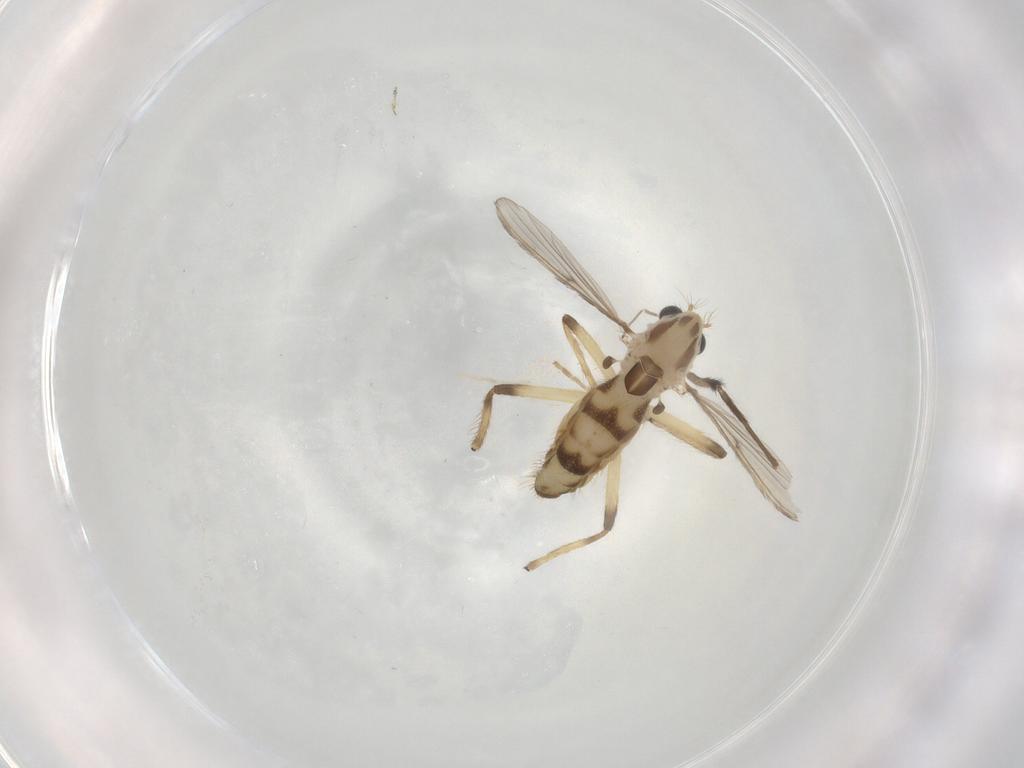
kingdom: Animalia
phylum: Arthropoda
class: Insecta
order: Diptera
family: Chironomidae
